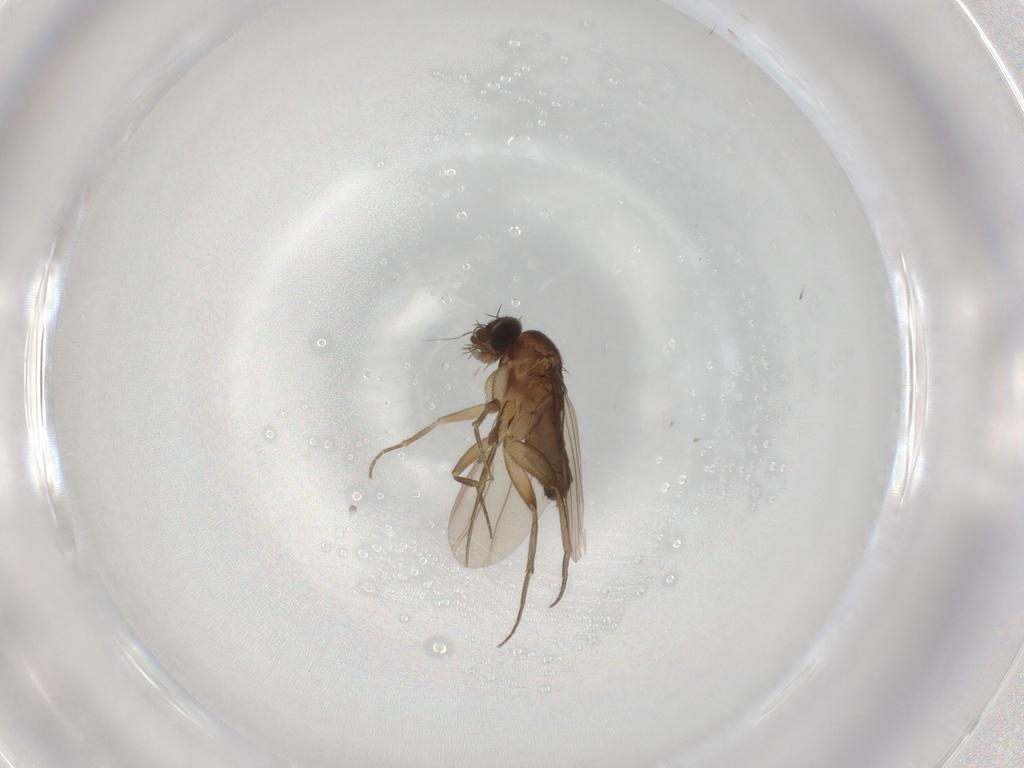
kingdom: Animalia
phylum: Arthropoda
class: Insecta
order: Diptera
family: Phoridae
